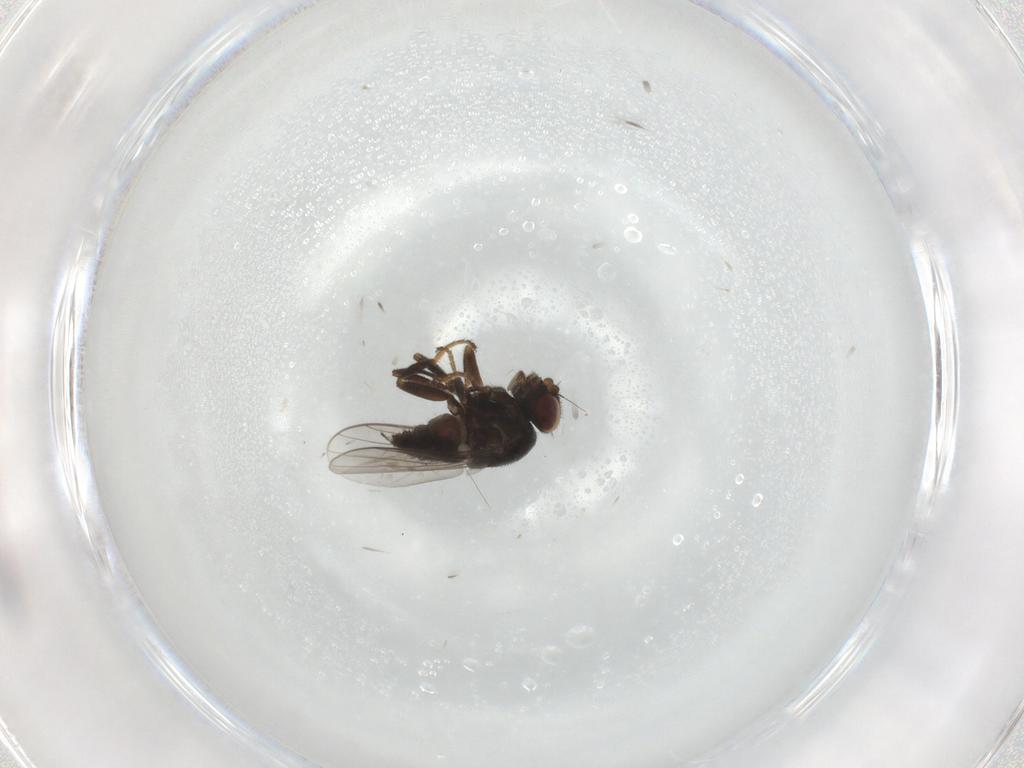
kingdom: Animalia
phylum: Arthropoda
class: Insecta
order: Diptera
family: Chloropidae
